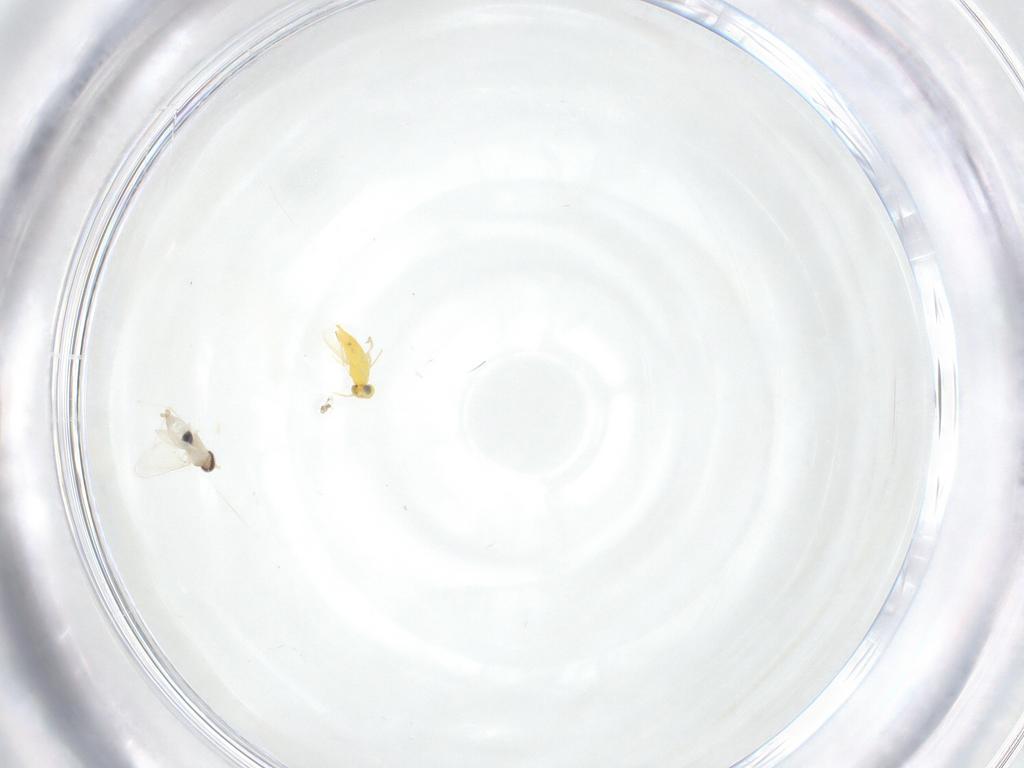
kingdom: Animalia
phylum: Arthropoda
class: Insecta
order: Hymenoptera
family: Aphelinidae
